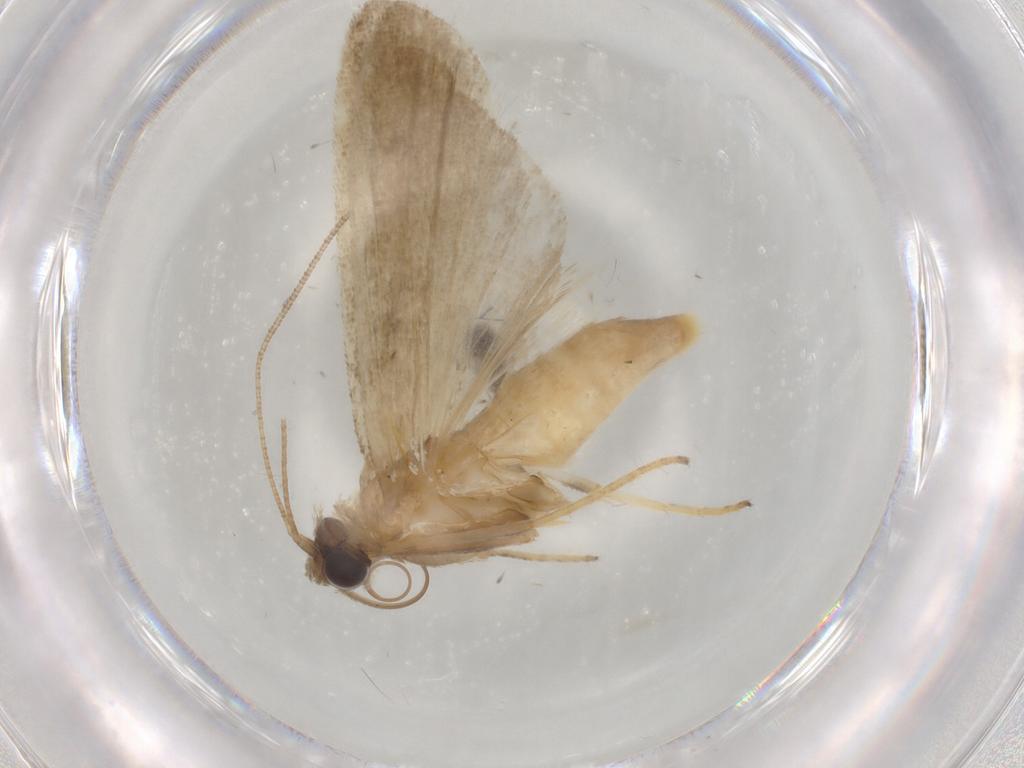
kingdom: Animalia
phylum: Arthropoda
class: Insecta
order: Lepidoptera
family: Noctuidae
